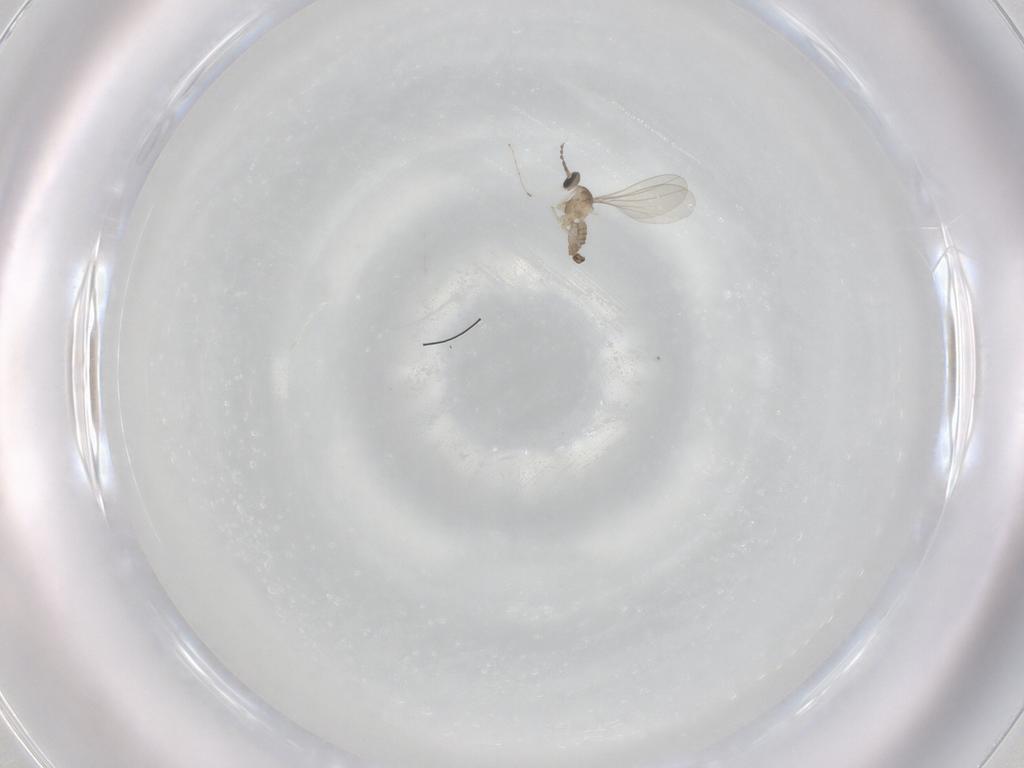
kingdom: Animalia
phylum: Arthropoda
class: Insecta
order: Diptera
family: Cecidomyiidae
